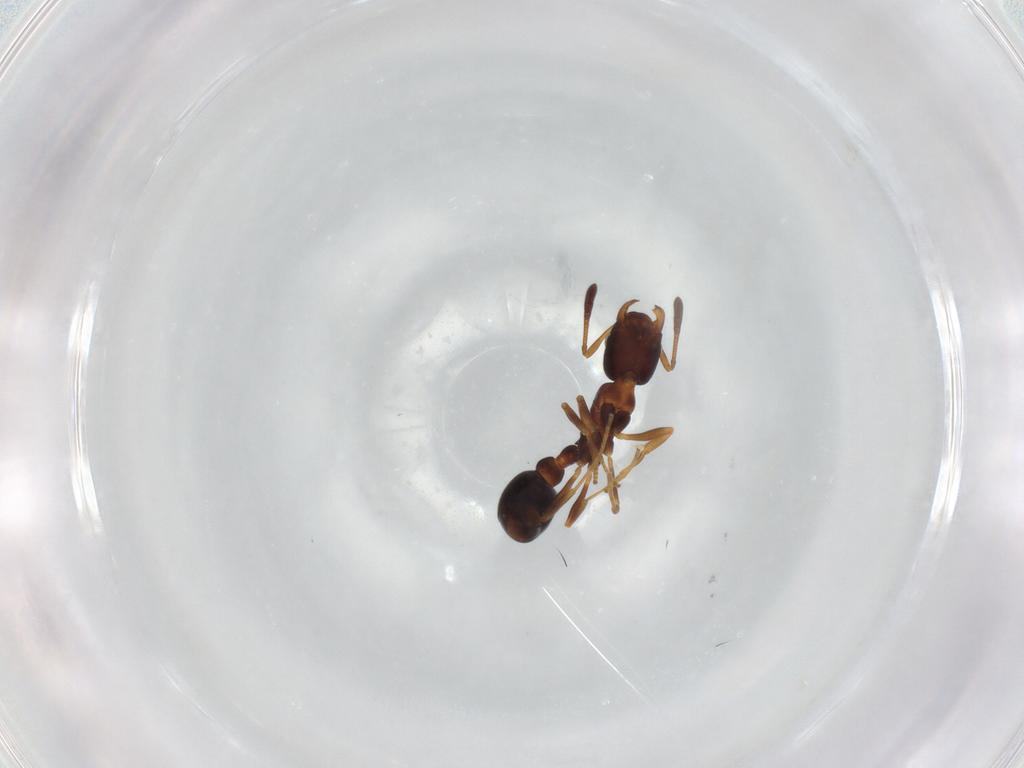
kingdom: Animalia
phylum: Arthropoda
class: Insecta
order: Hymenoptera
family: Formicidae
